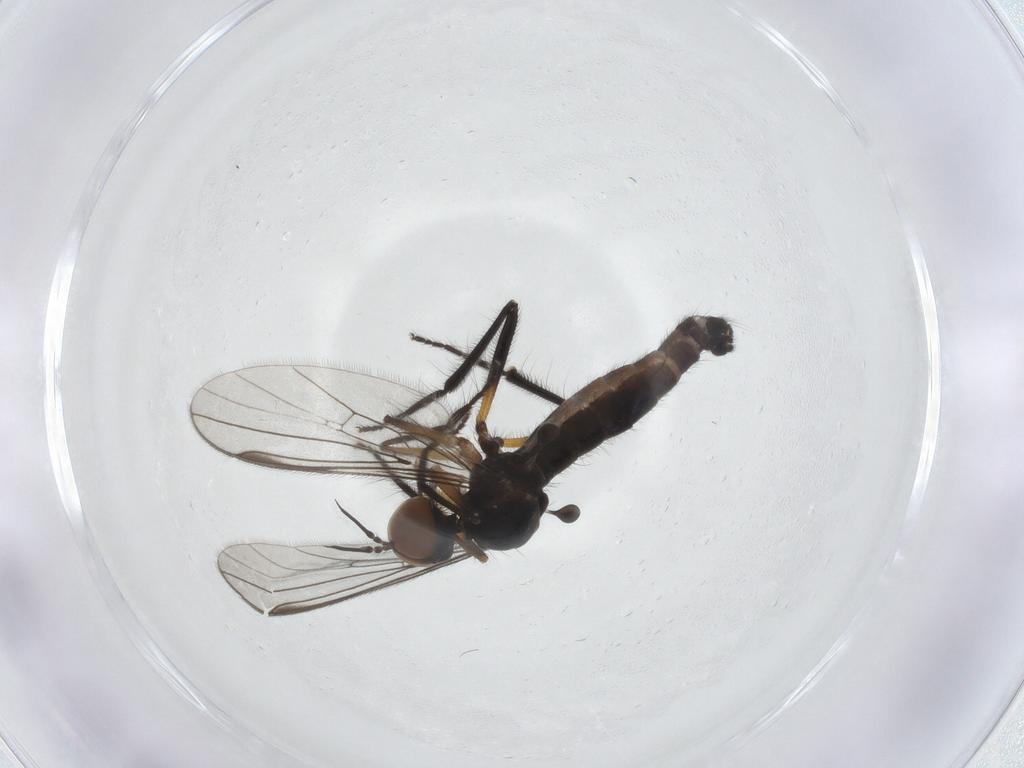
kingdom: Animalia
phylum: Arthropoda
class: Insecta
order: Diptera
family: Empididae
